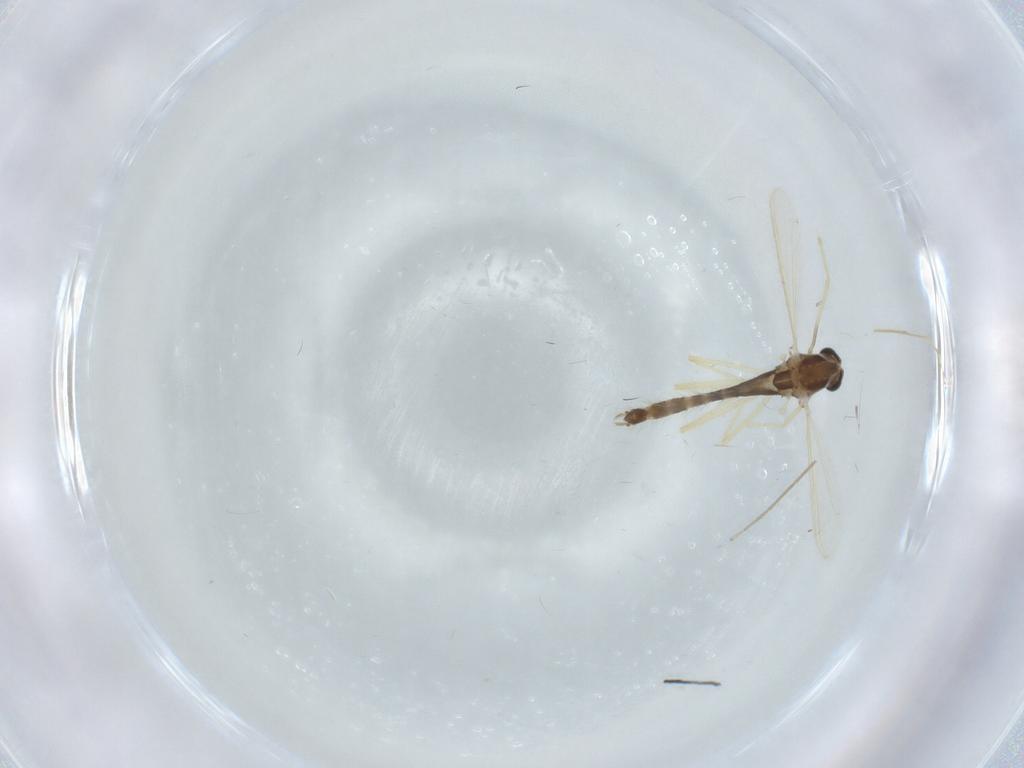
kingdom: Animalia
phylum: Arthropoda
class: Insecta
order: Diptera
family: Chironomidae
